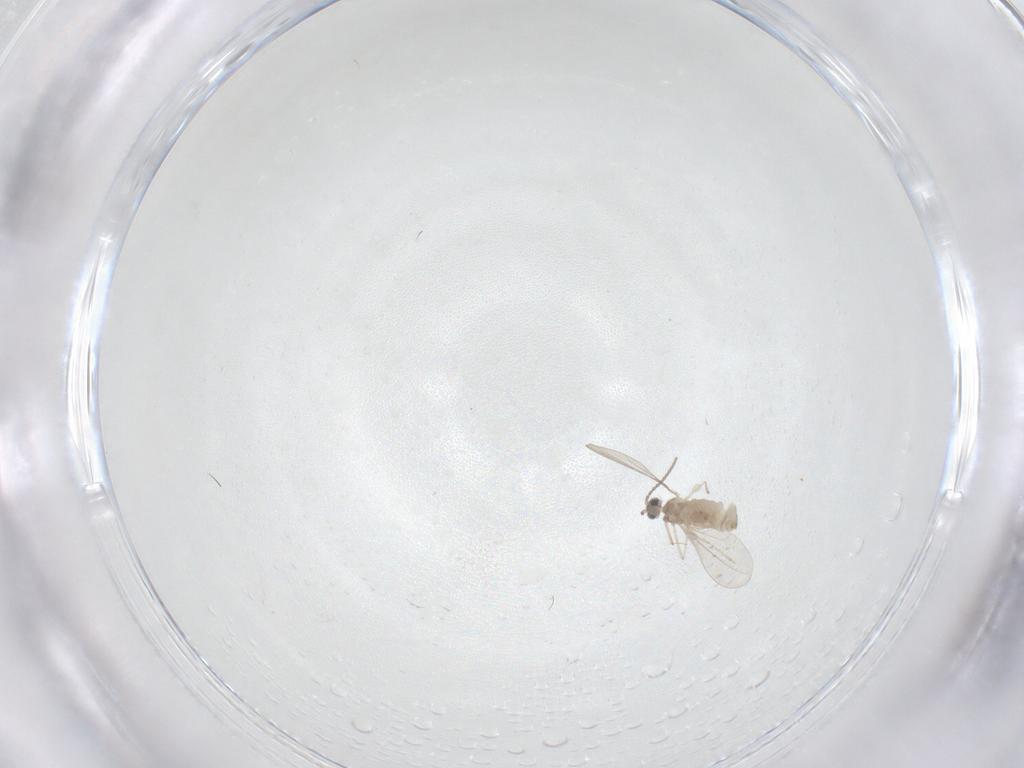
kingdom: Animalia
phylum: Arthropoda
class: Insecta
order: Diptera
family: Cecidomyiidae
